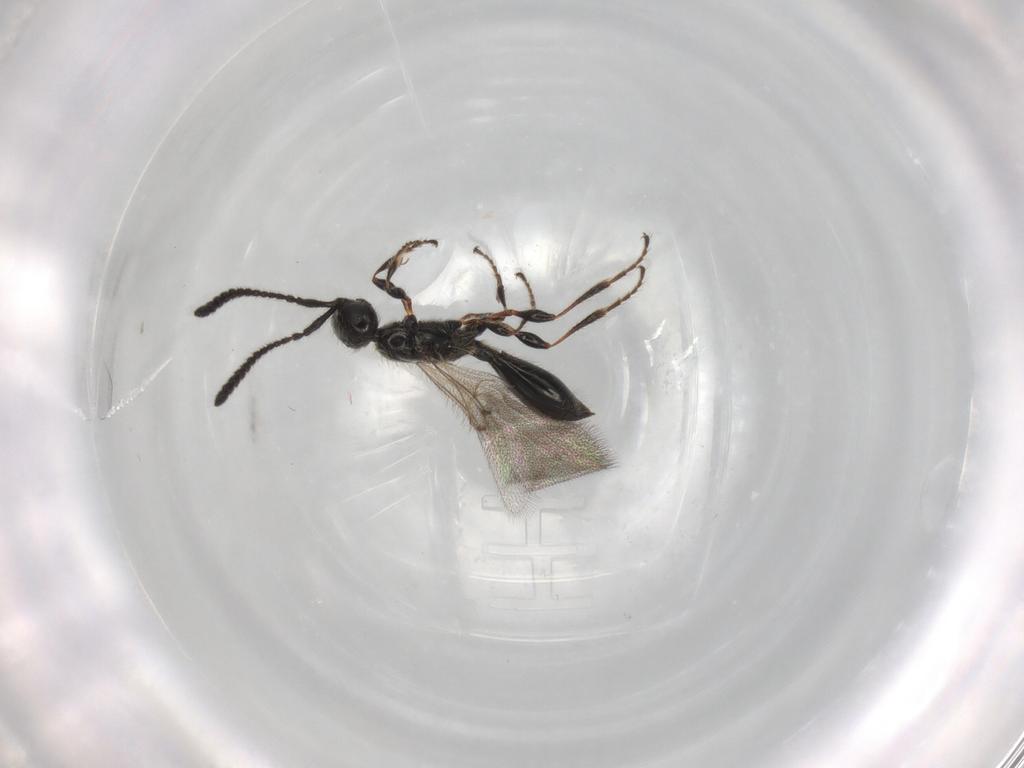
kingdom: Animalia
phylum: Arthropoda
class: Insecta
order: Hymenoptera
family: Diapriidae
